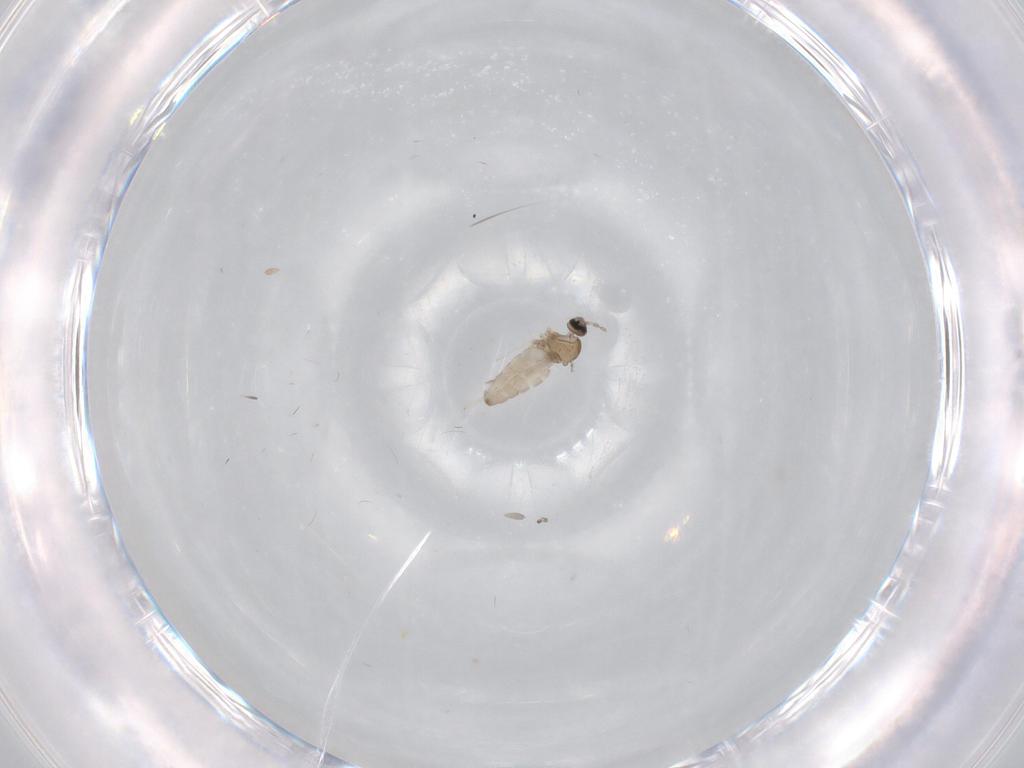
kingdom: Animalia
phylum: Arthropoda
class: Insecta
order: Diptera
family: Cecidomyiidae
